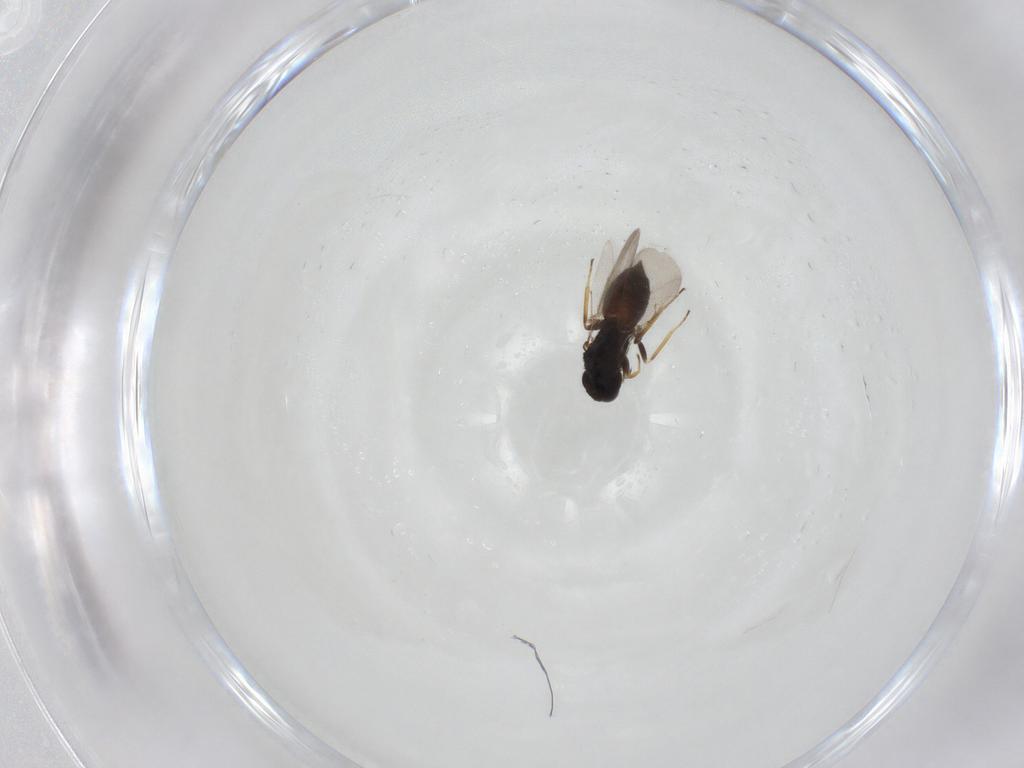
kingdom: Animalia
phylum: Arthropoda
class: Insecta
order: Hymenoptera
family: Eulophidae
